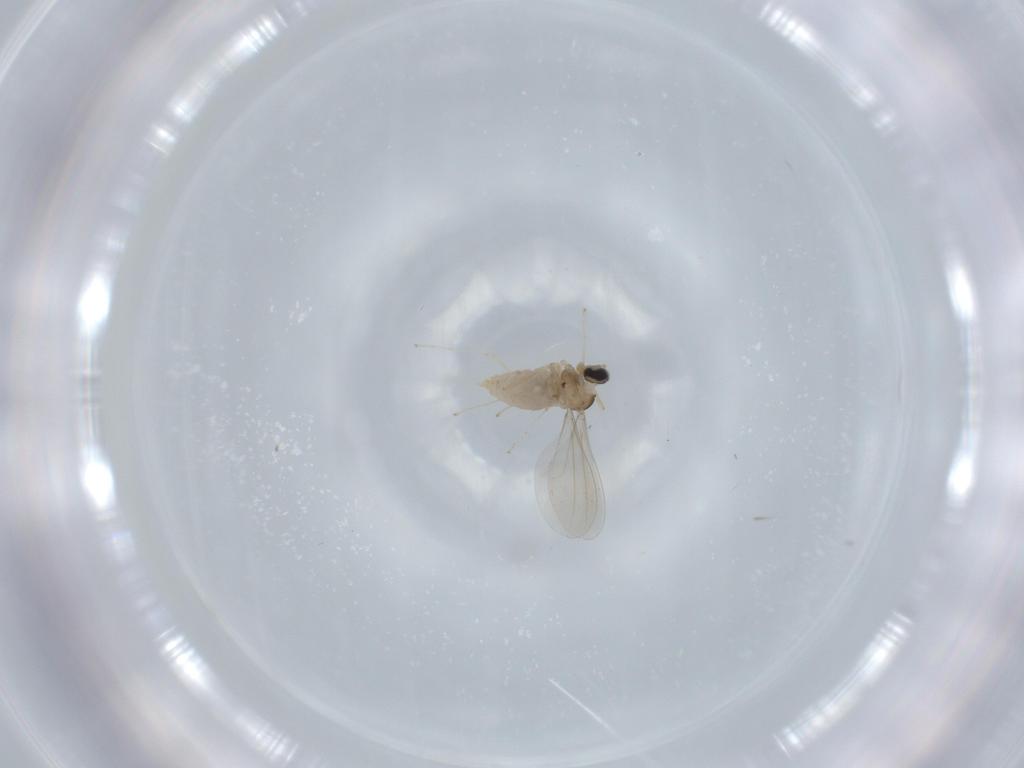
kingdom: Animalia
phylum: Arthropoda
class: Insecta
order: Diptera
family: Cecidomyiidae
